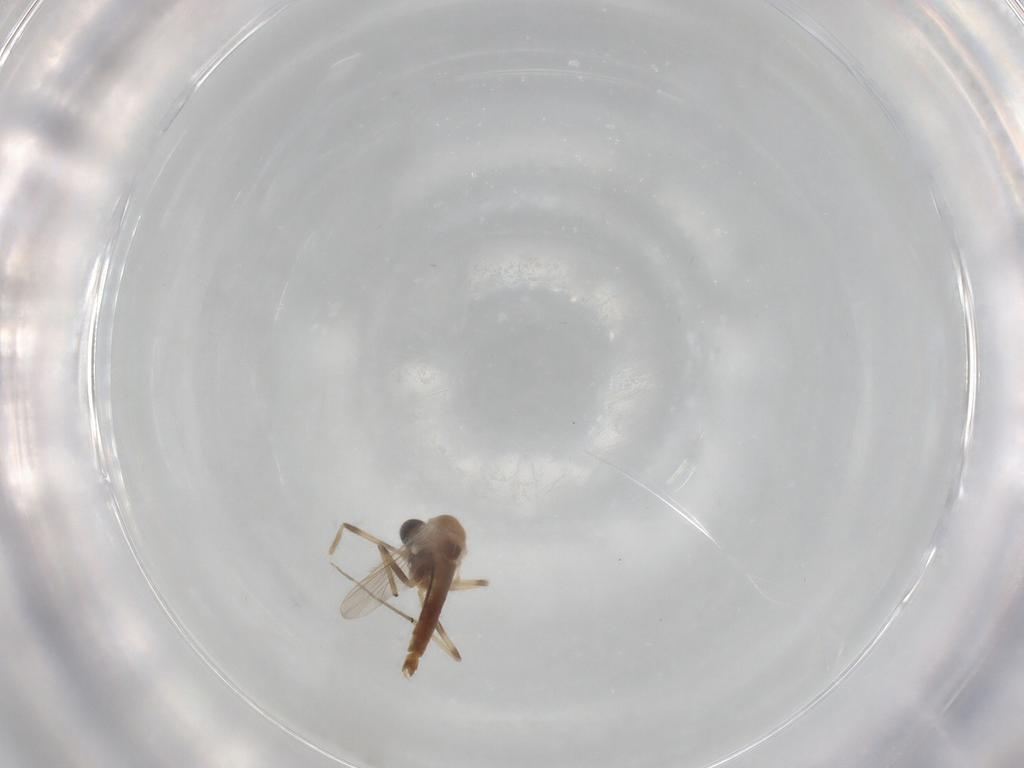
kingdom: Animalia
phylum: Arthropoda
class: Insecta
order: Diptera
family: Chironomidae
